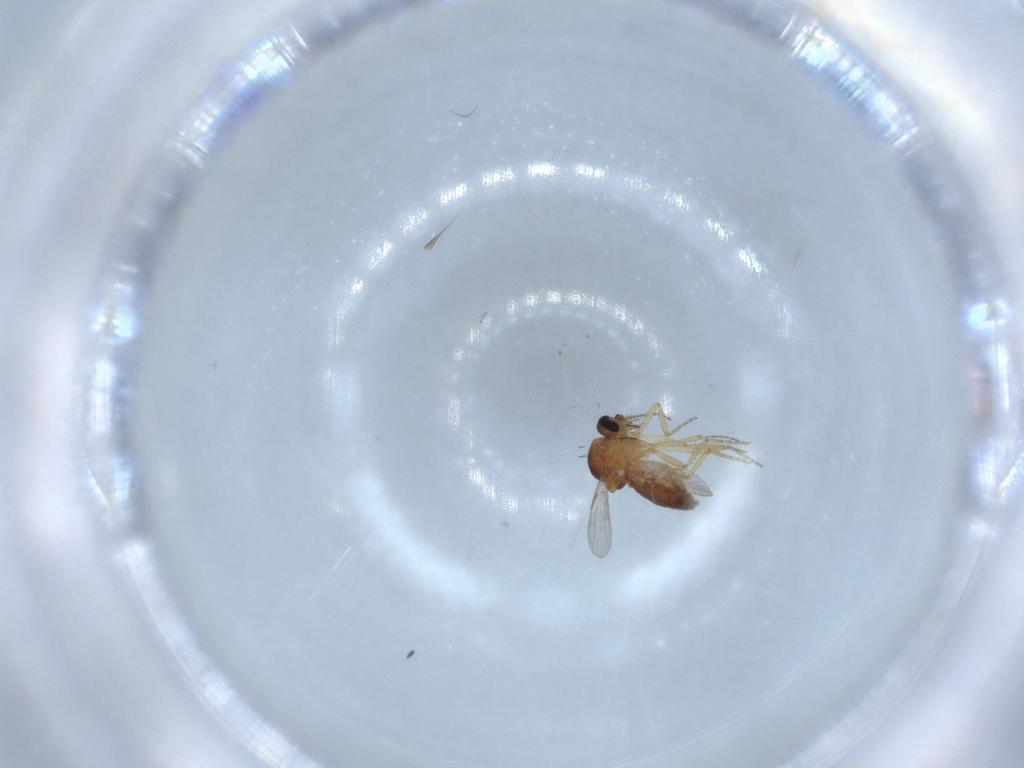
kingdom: Animalia
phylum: Arthropoda
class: Insecta
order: Diptera
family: Ceratopogonidae
